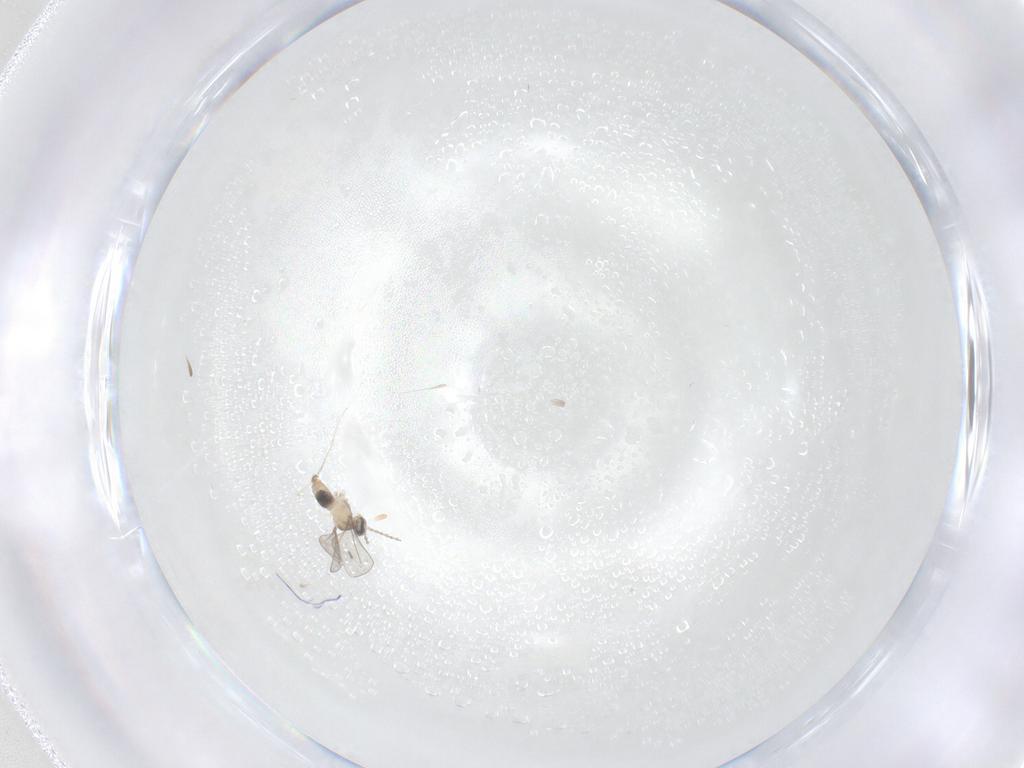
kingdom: Animalia
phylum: Arthropoda
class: Insecta
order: Diptera
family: Cecidomyiidae
